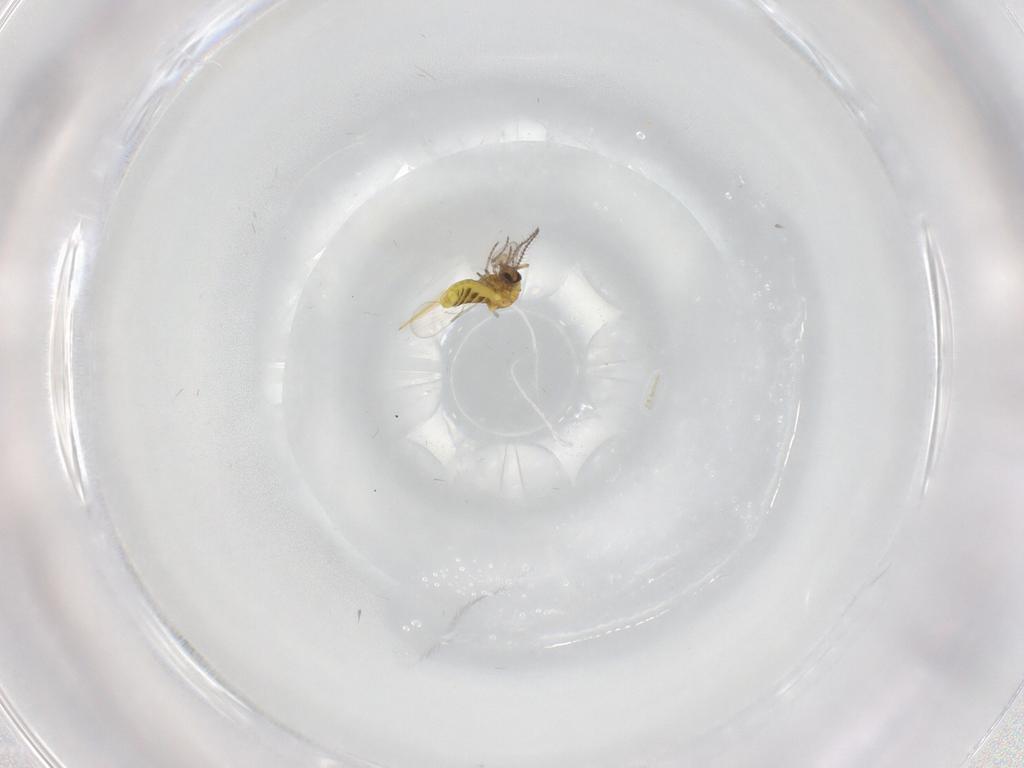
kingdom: Animalia
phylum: Arthropoda
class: Insecta
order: Diptera
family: Ceratopogonidae
